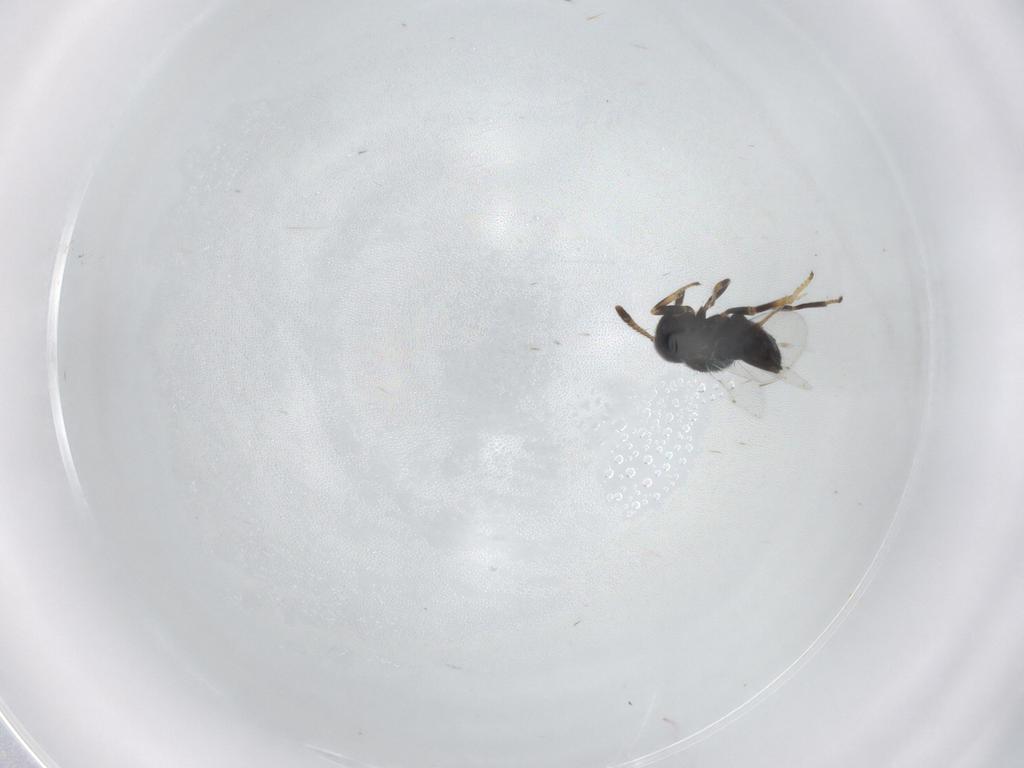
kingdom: Animalia
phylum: Arthropoda
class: Insecta
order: Hymenoptera
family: Encyrtidae
